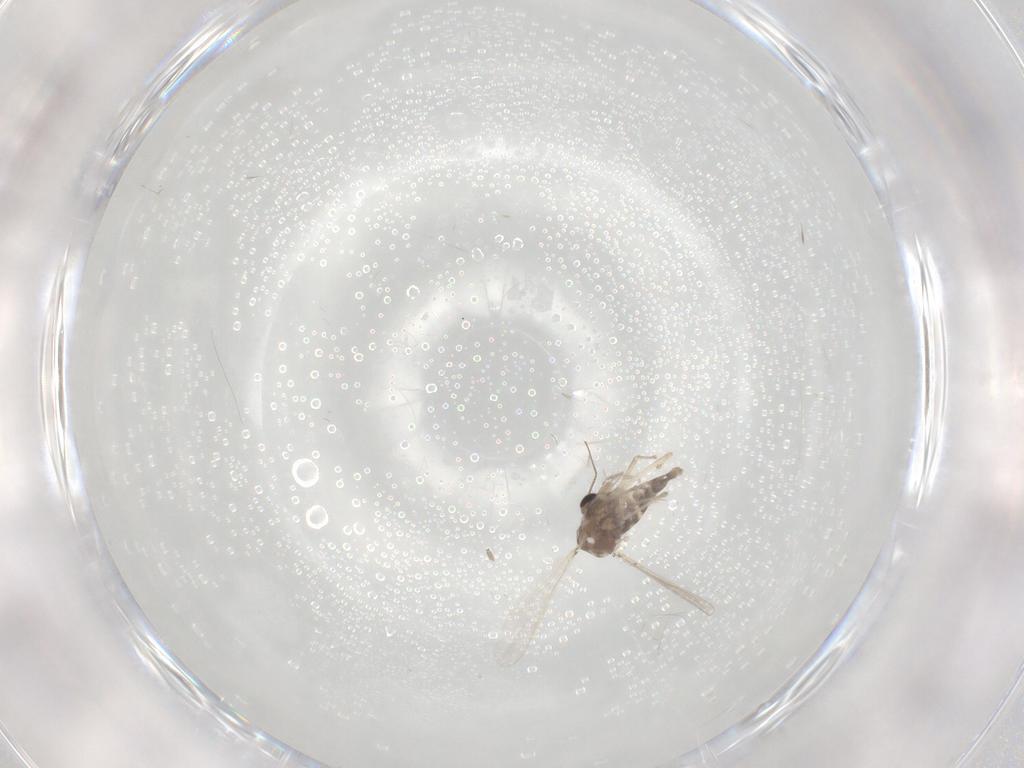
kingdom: Animalia
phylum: Arthropoda
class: Insecta
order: Diptera
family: Chironomidae
